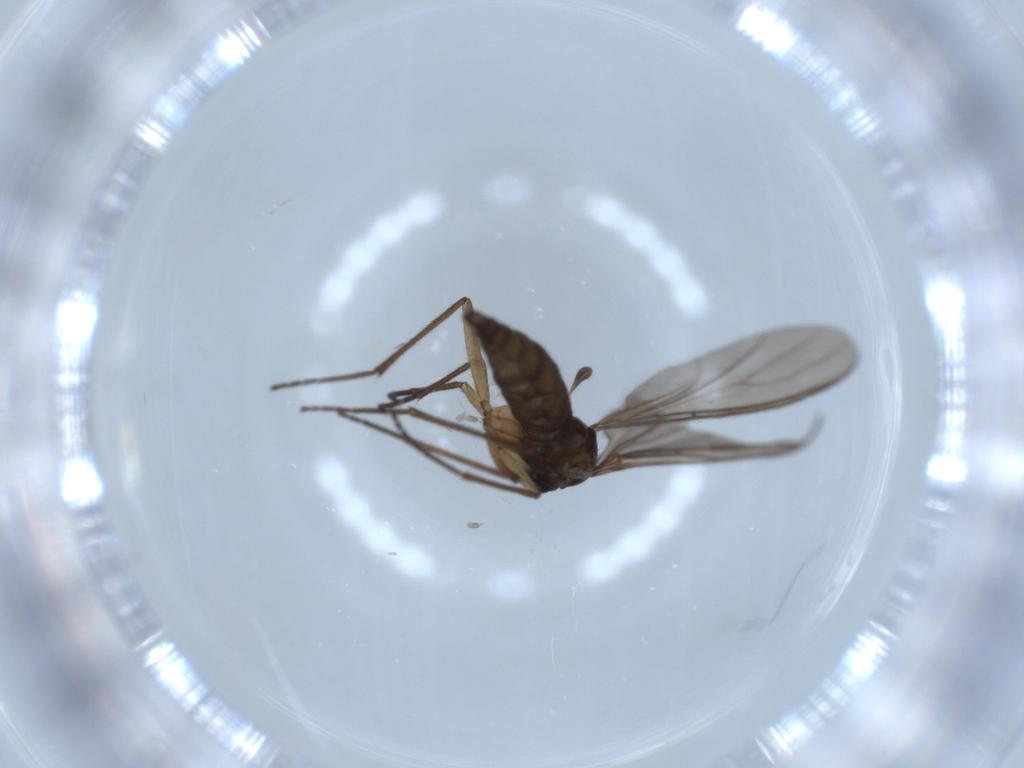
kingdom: Animalia
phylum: Arthropoda
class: Insecta
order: Diptera
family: Sciaridae
